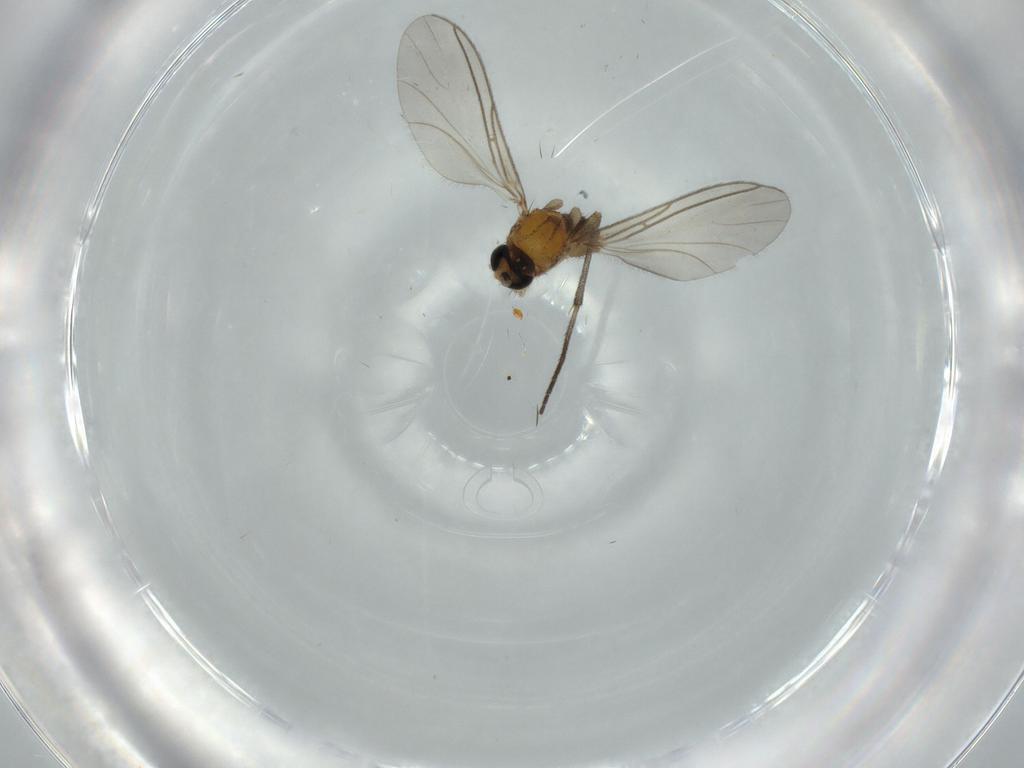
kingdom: Animalia
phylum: Arthropoda
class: Insecta
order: Diptera
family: Sciaridae
